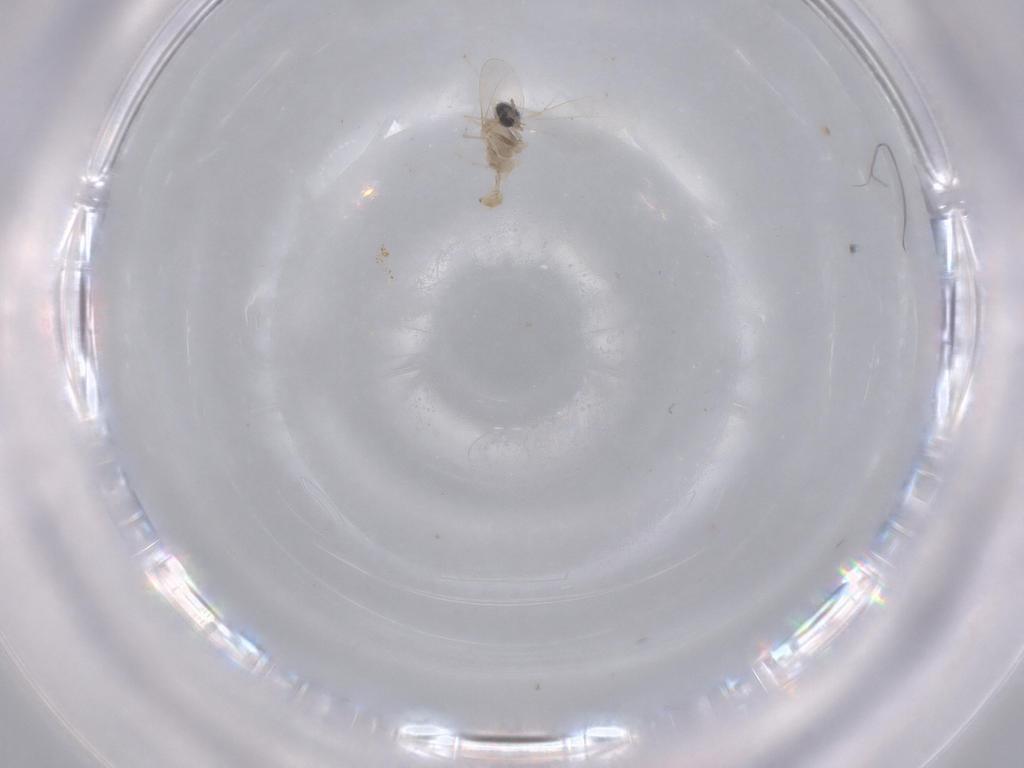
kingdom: Animalia
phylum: Arthropoda
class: Insecta
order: Diptera
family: Cecidomyiidae
